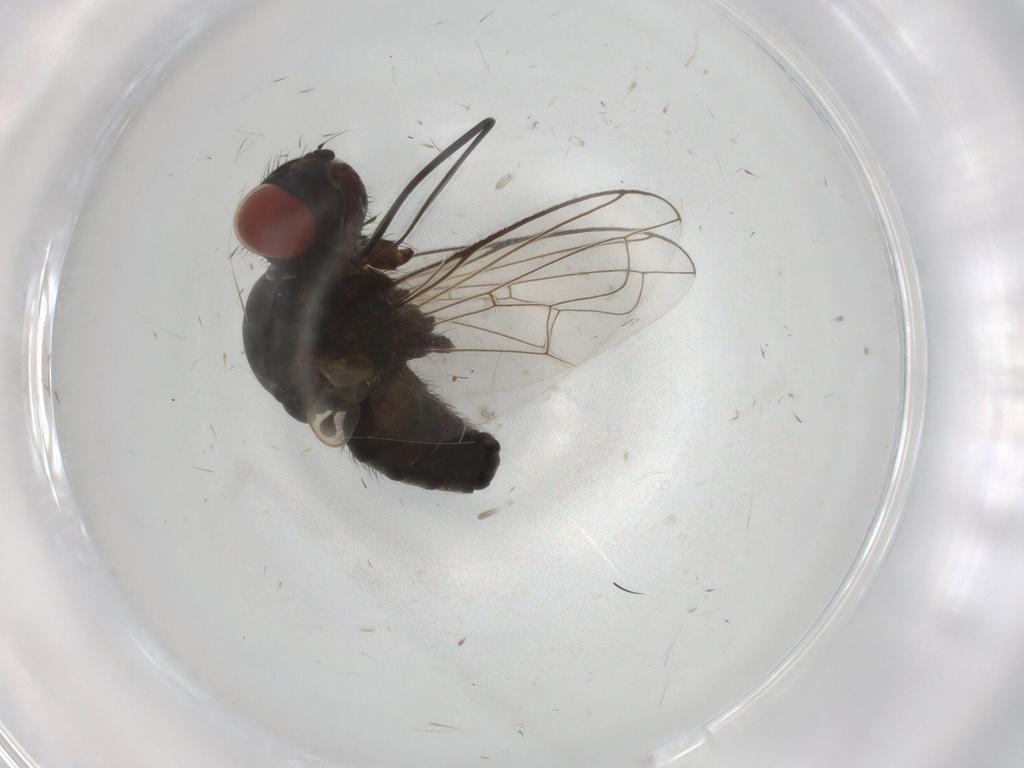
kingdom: Animalia
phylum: Arthropoda
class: Insecta
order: Diptera
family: Tachinidae
